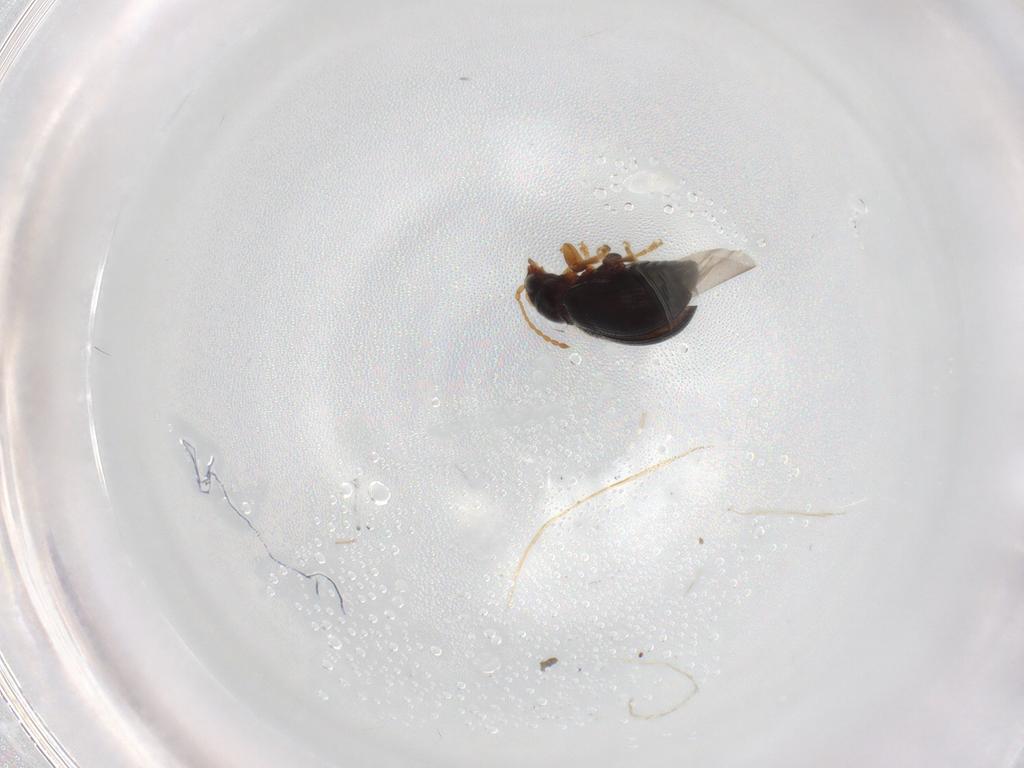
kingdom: Animalia
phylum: Arthropoda
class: Insecta
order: Coleoptera
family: Chrysomelidae
